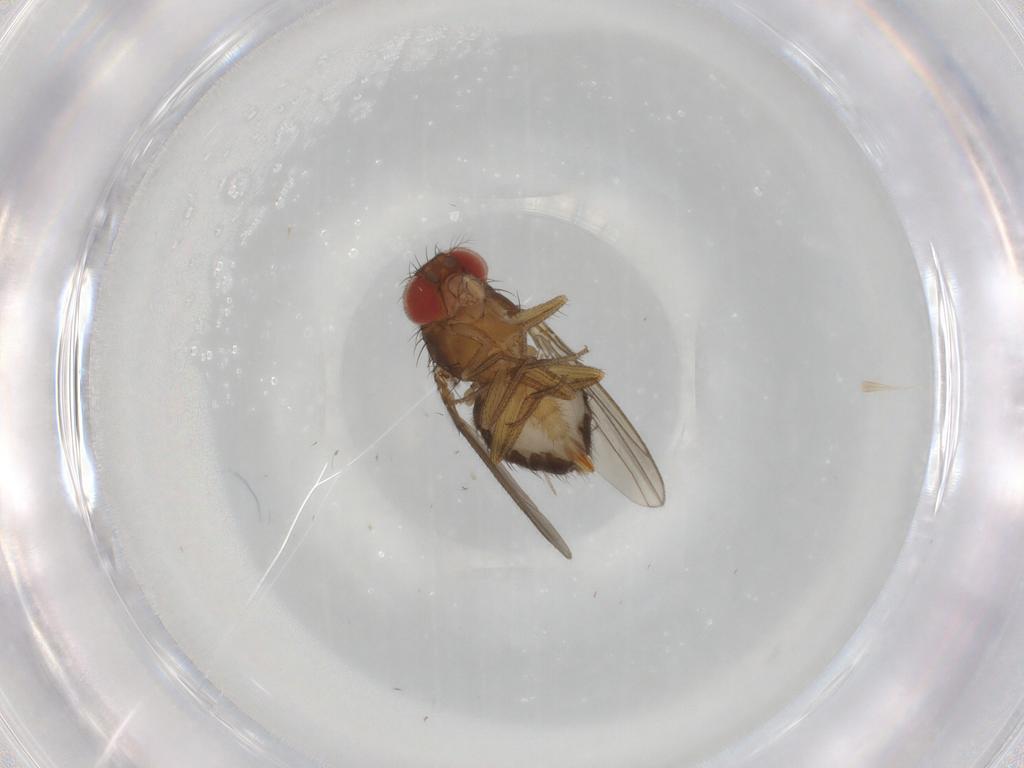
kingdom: Animalia
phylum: Arthropoda
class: Insecta
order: Diptera
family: Drosophilidae
